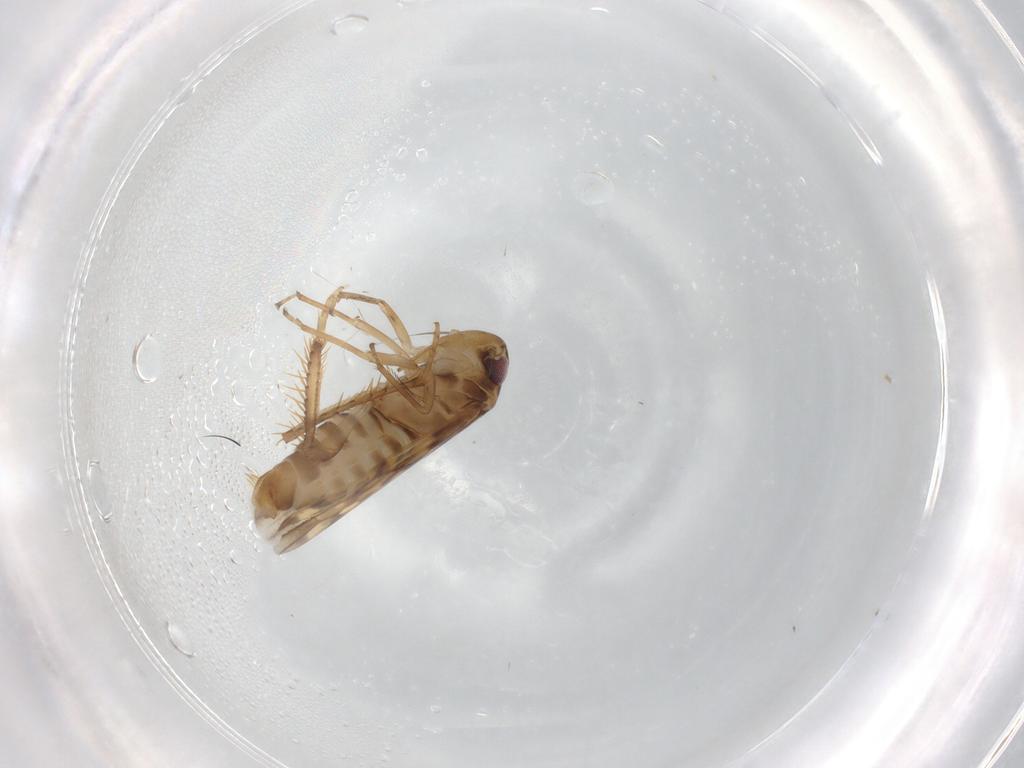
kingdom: Animalia
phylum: Arthropoda
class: Insecta
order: Hemiptera
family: Cicadellidae
